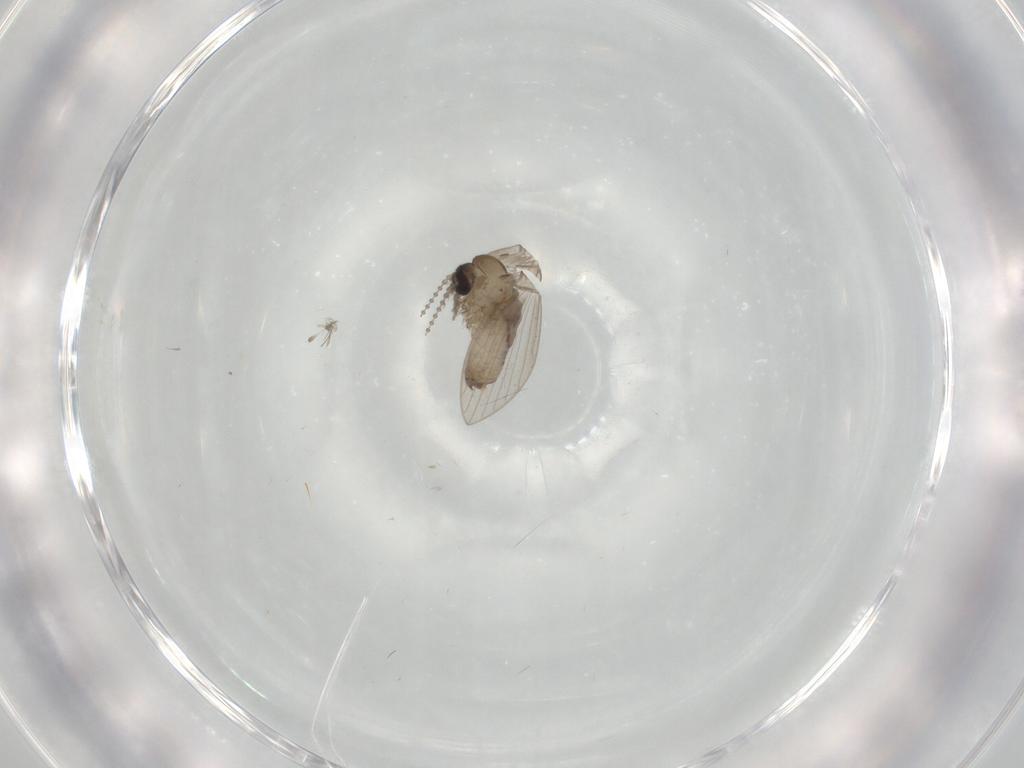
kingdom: Animalia
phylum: Arthropoda
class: Insecta
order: Diptera
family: Psychodidae
